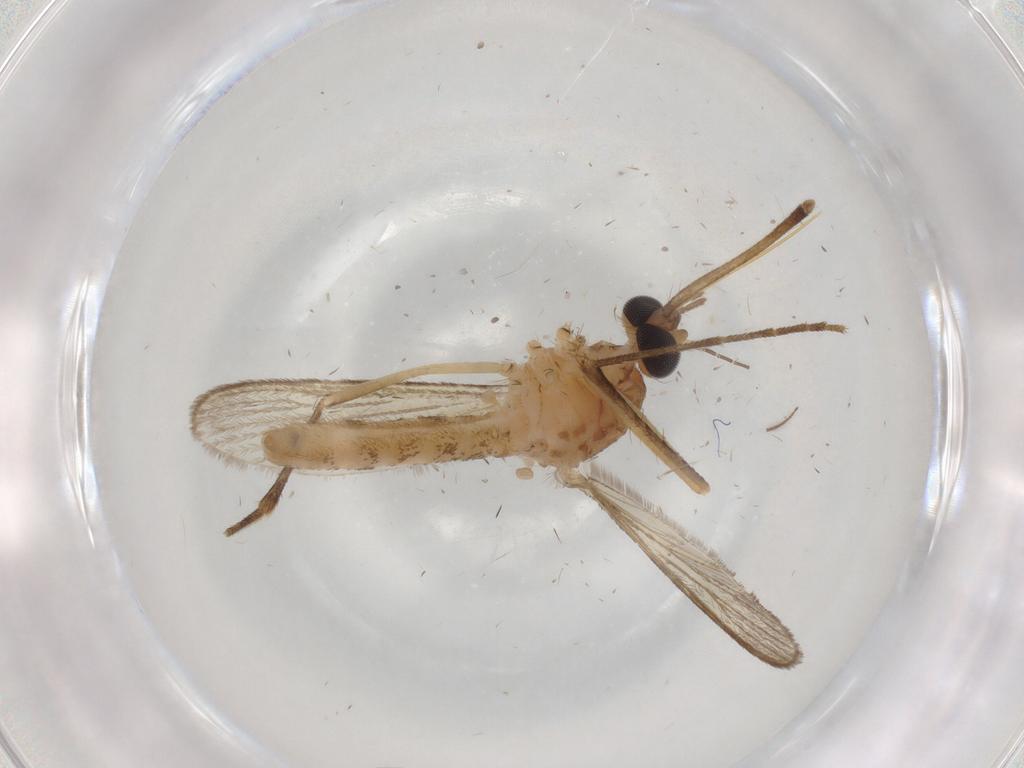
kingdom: Animalia
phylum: Arthropoda
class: Insecta
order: Diptera
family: Cecidomyiidae
